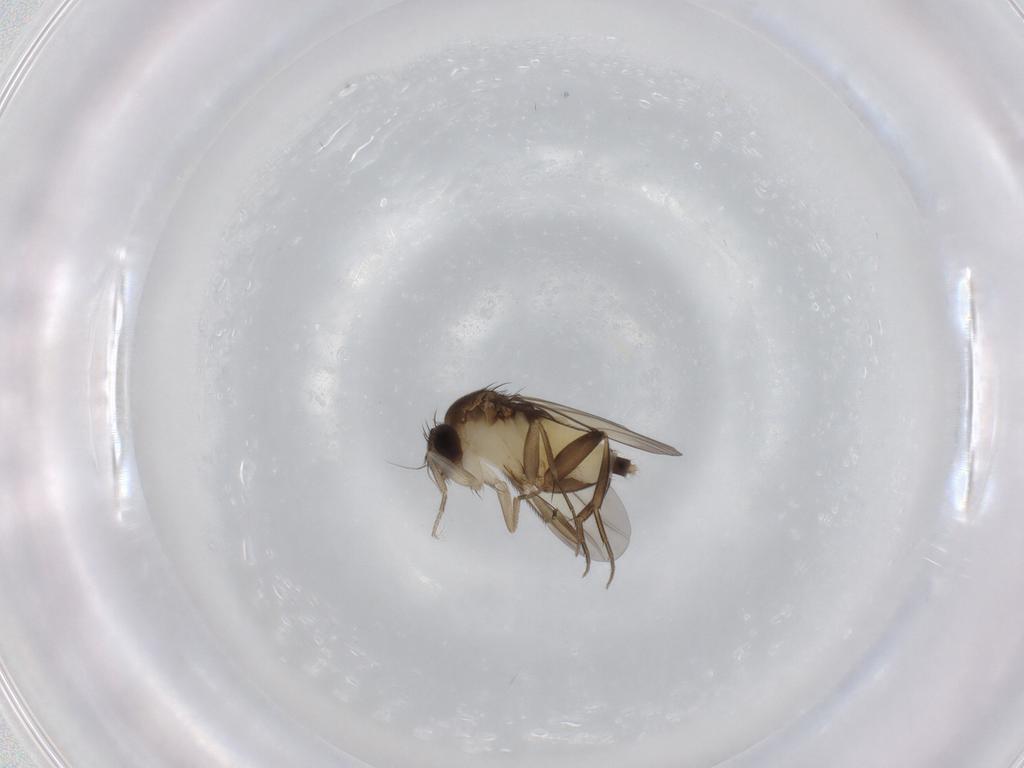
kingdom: Animalia
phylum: Arthropoda
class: Insecta
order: Diptera
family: Phoridae
